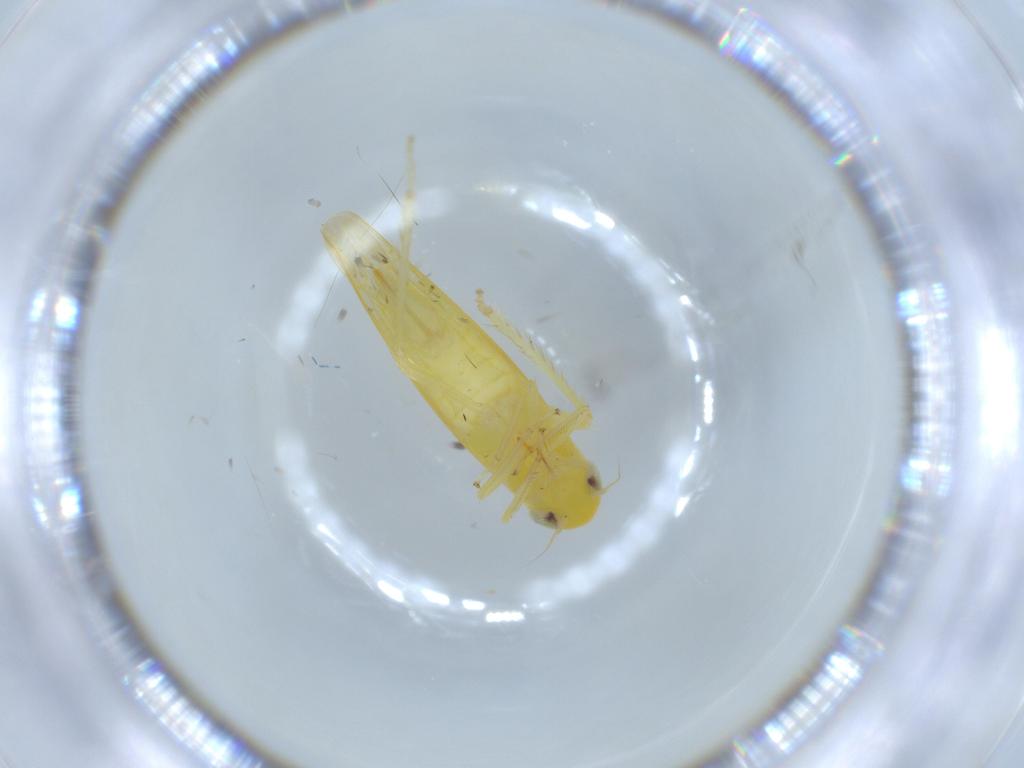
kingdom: Animalia
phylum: Arthropoda
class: Insecta
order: Hemiptera
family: Cicadellidae
